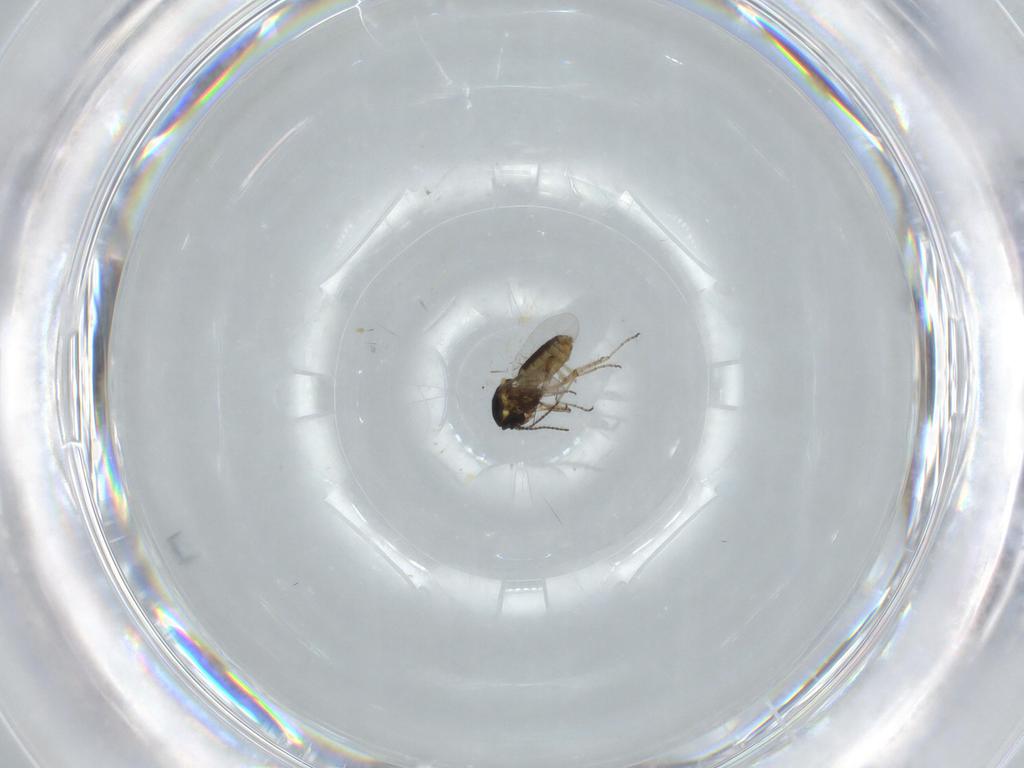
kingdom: Animalia
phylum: Arthropoda
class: Insecta
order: Diptera
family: Ceratopogonidae
